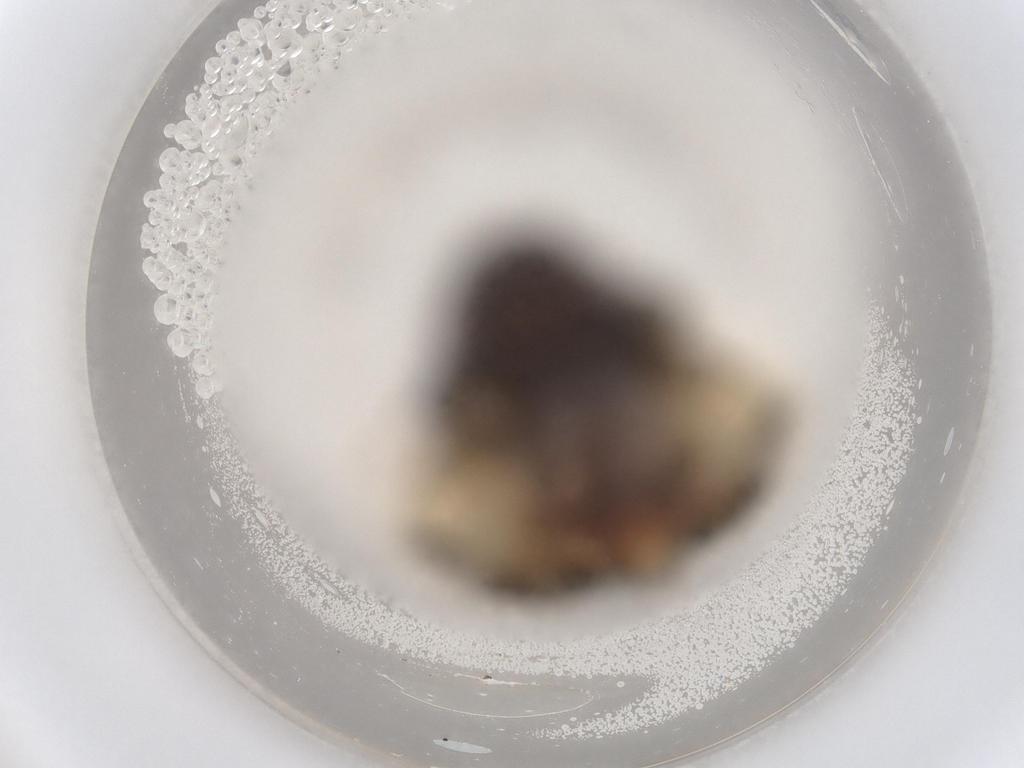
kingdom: Animalia
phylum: Arthropoda
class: Insecta
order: Hemiptera
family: Cicadellidae
